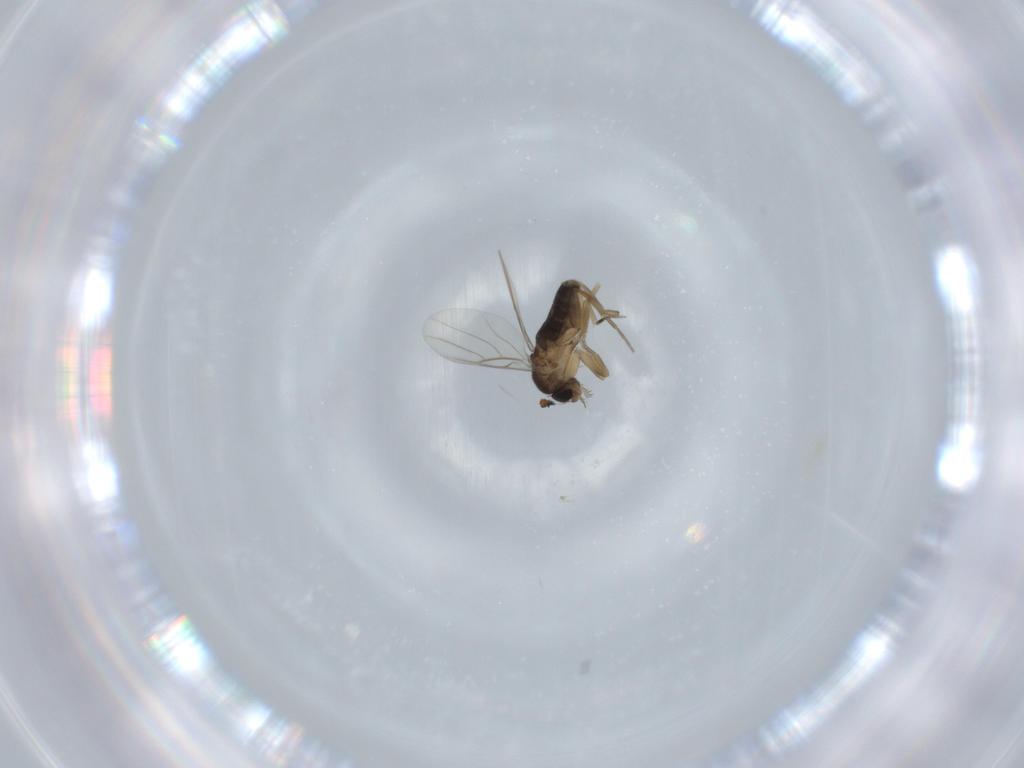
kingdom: Animalia
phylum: Arthropoda
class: Insecta
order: Diptera
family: Phoridae
